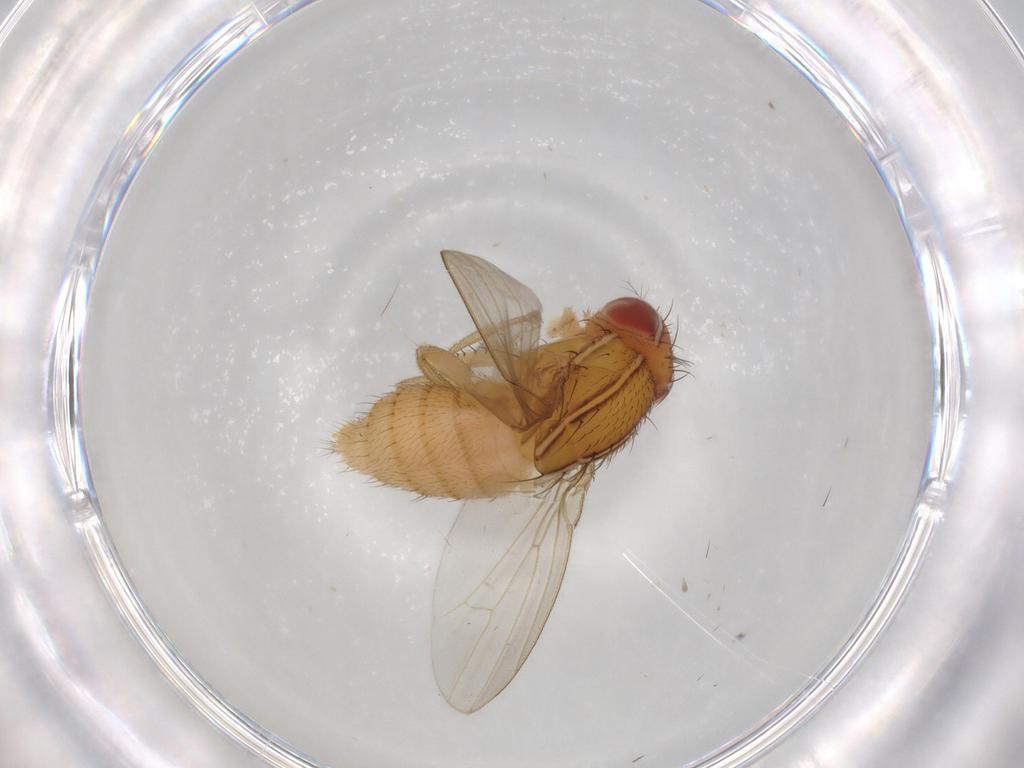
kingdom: Animalia
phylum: Arthropoda
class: Insecta
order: Diptera
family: Drosophilidae
